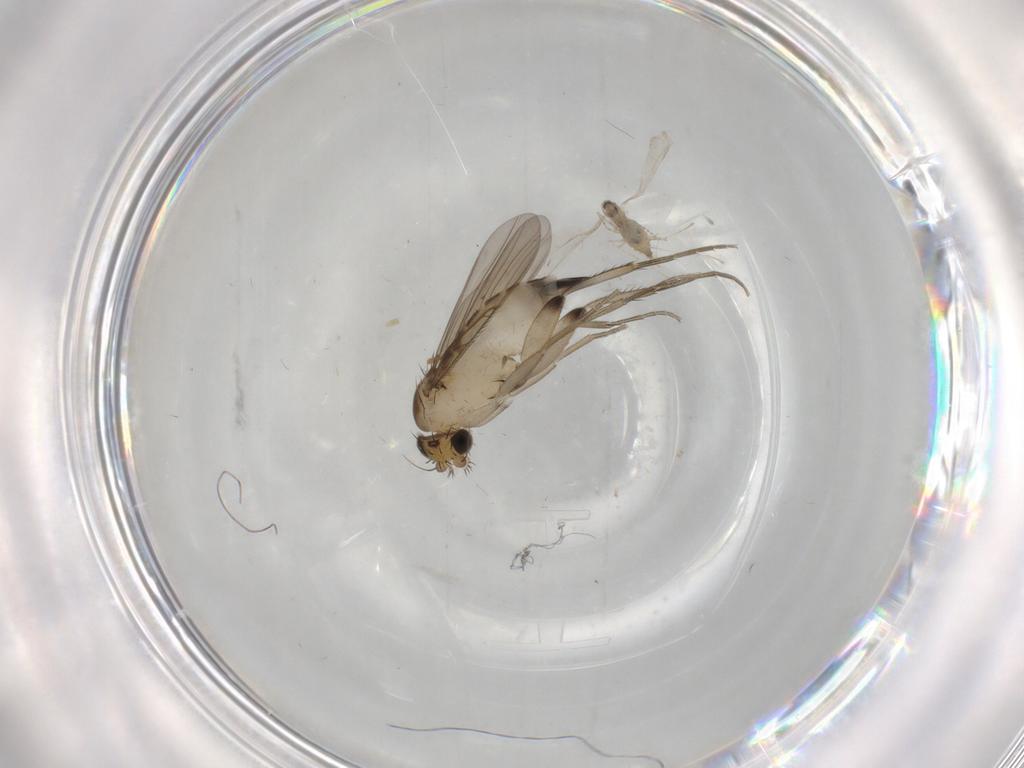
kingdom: Animalia
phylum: Arthropoda
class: Insecta
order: Diptera
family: Cecidomyiidae
